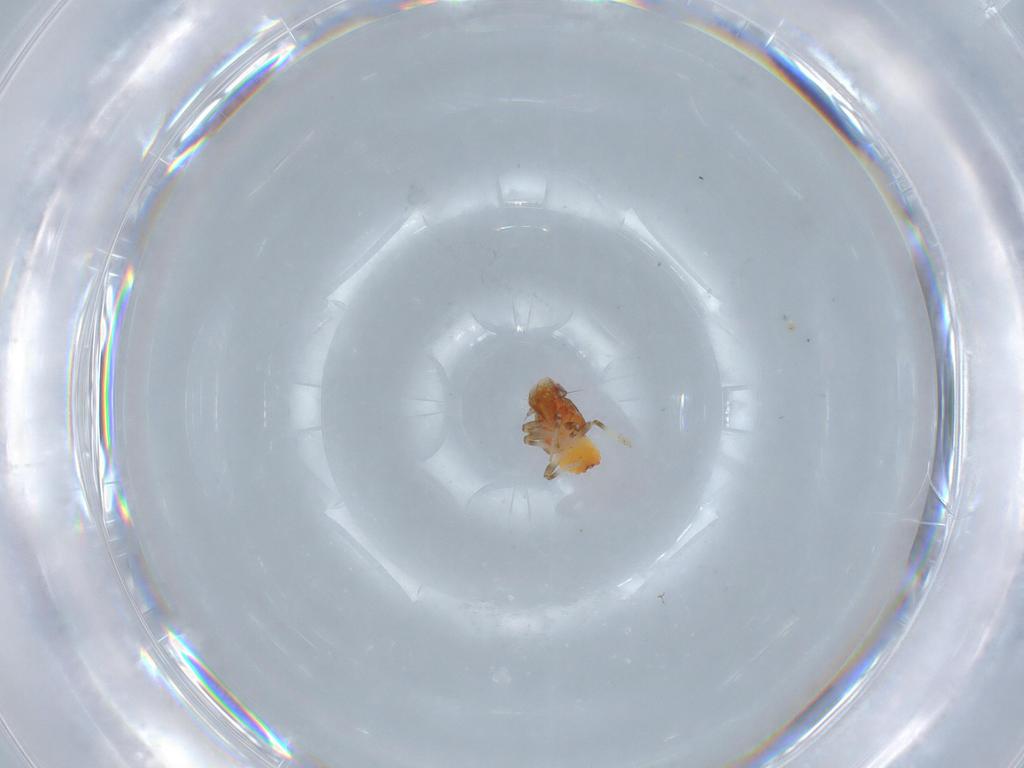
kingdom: Animalia
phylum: Arthropoda
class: Insecta
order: Hemiptera
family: Issidae
